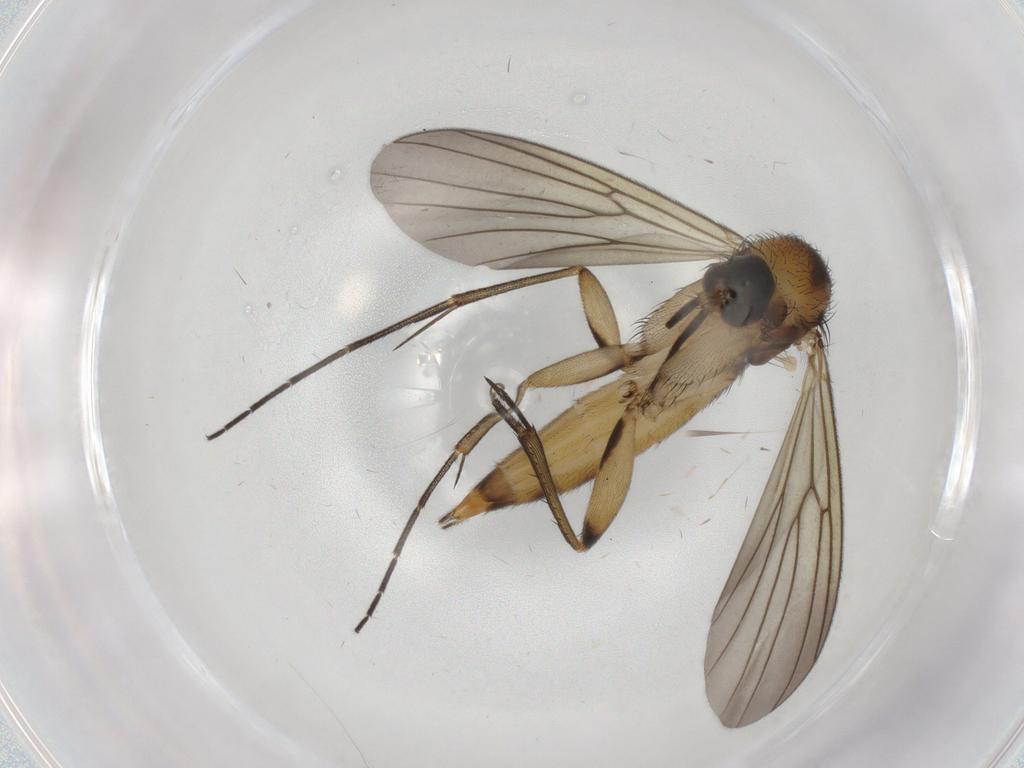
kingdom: Animalia
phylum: Arthropoda
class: Insecta
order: Diptera
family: Mycetophilidae
